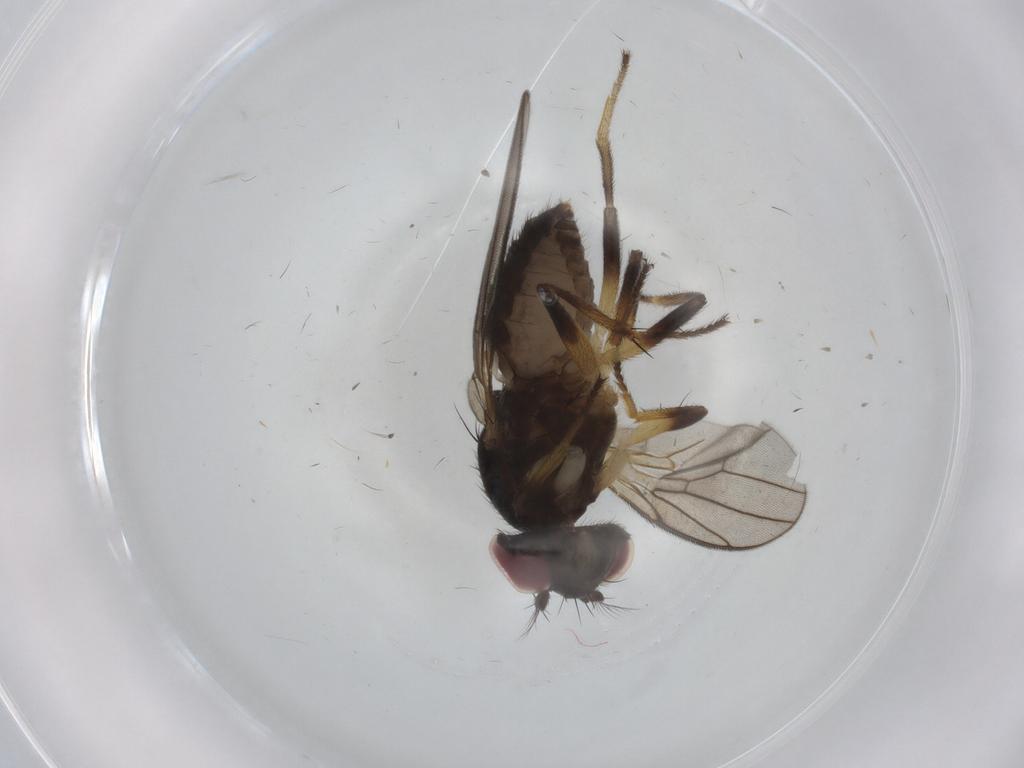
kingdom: Animalia
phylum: Arthropoda
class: Insecta
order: Diptera
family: Periscelididae
